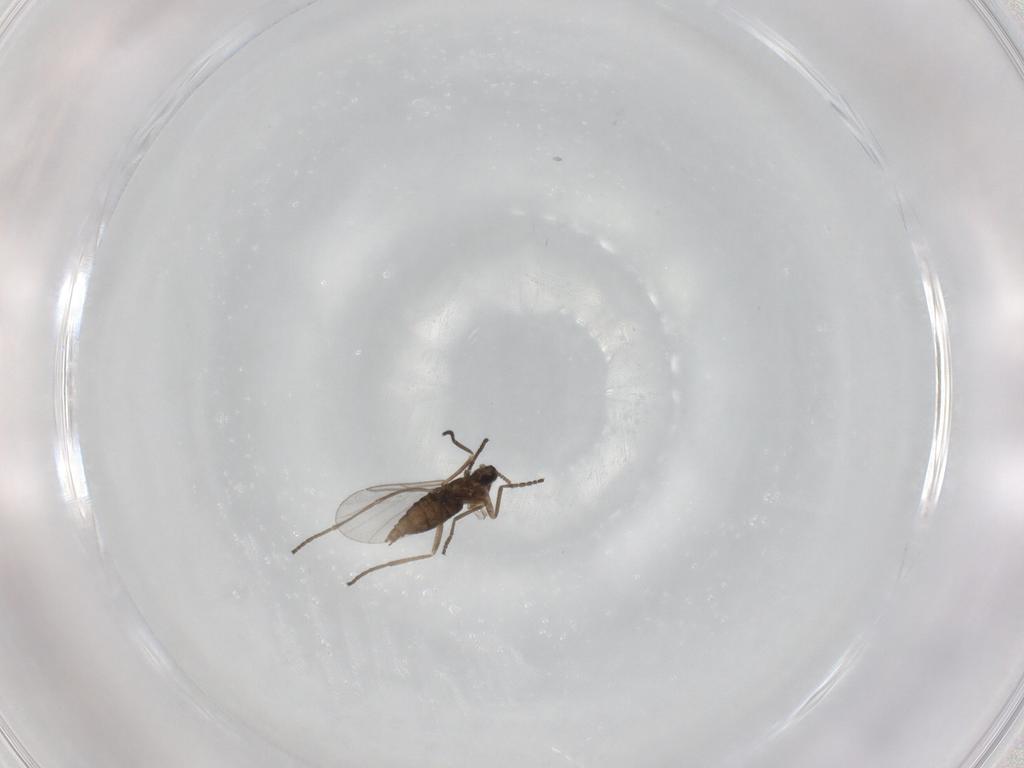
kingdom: Animalia
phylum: Arthropoda
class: Insecta
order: Diptera
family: Cecidomyiidae
